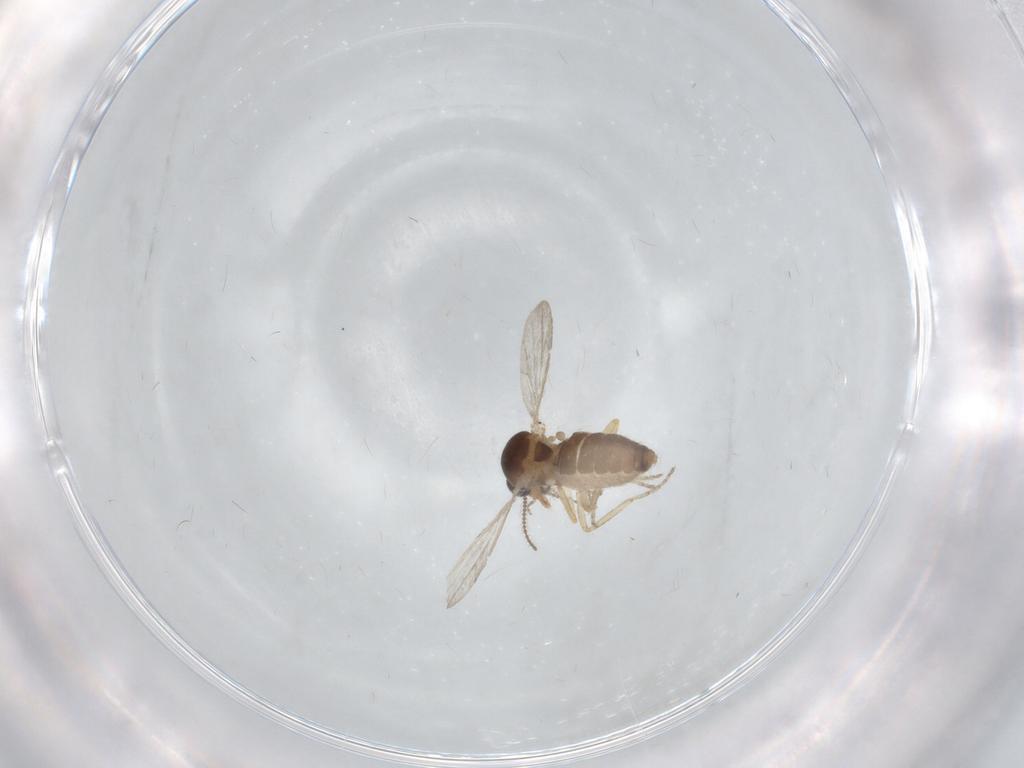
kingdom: Animalia
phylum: Arthropoda
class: Insecta
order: Diptera
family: Ceratopogonidae
